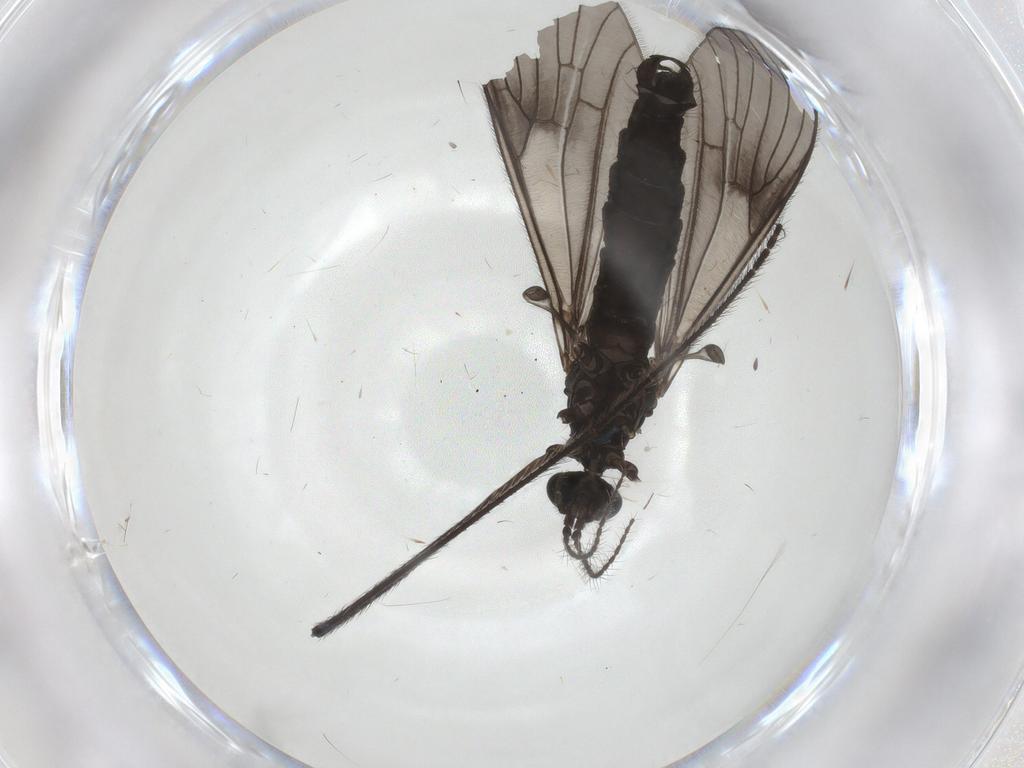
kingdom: Animalia
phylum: Arthropoda
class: Insecta
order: Diptera
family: Limoniidae
